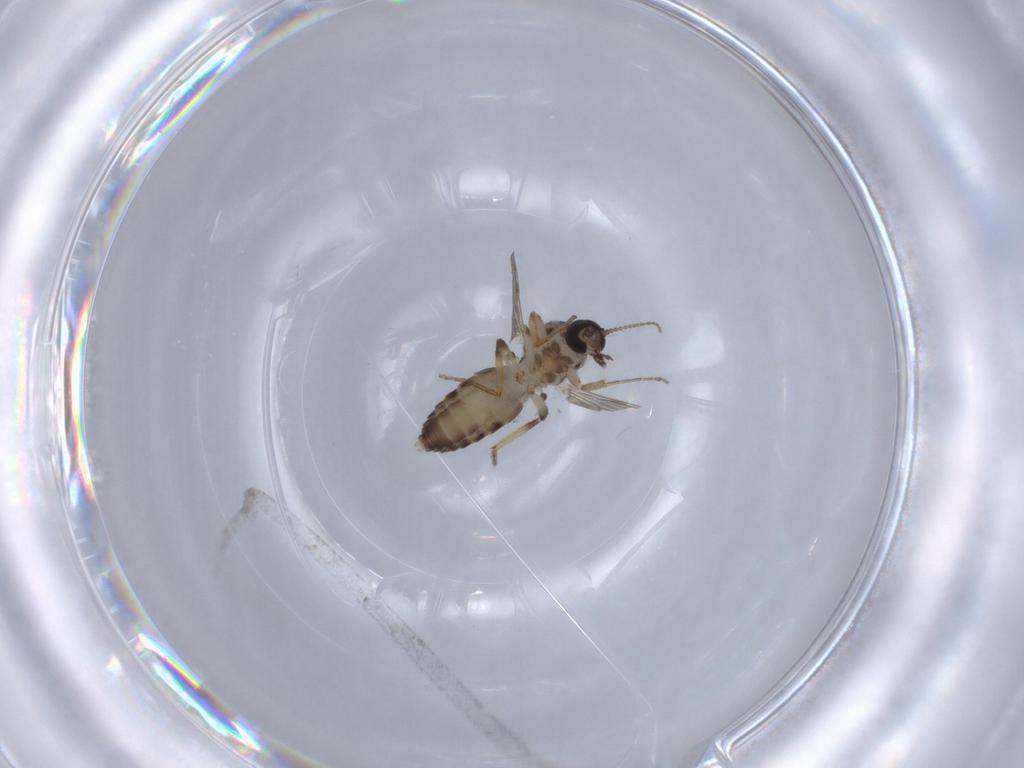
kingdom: Animalia
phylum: Arthropoda
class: Insecta
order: Diptera
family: Ceratopogonidae
